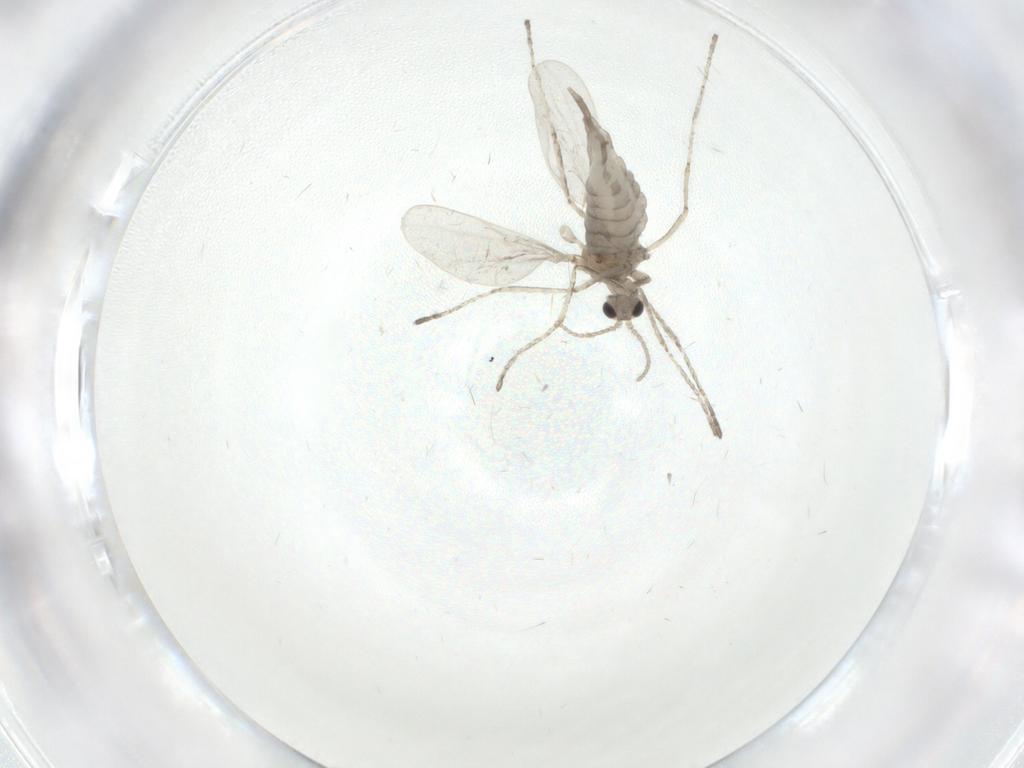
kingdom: Animalia
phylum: Arthropoda
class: Insecta
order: Diptera
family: Cecidomyiidae
